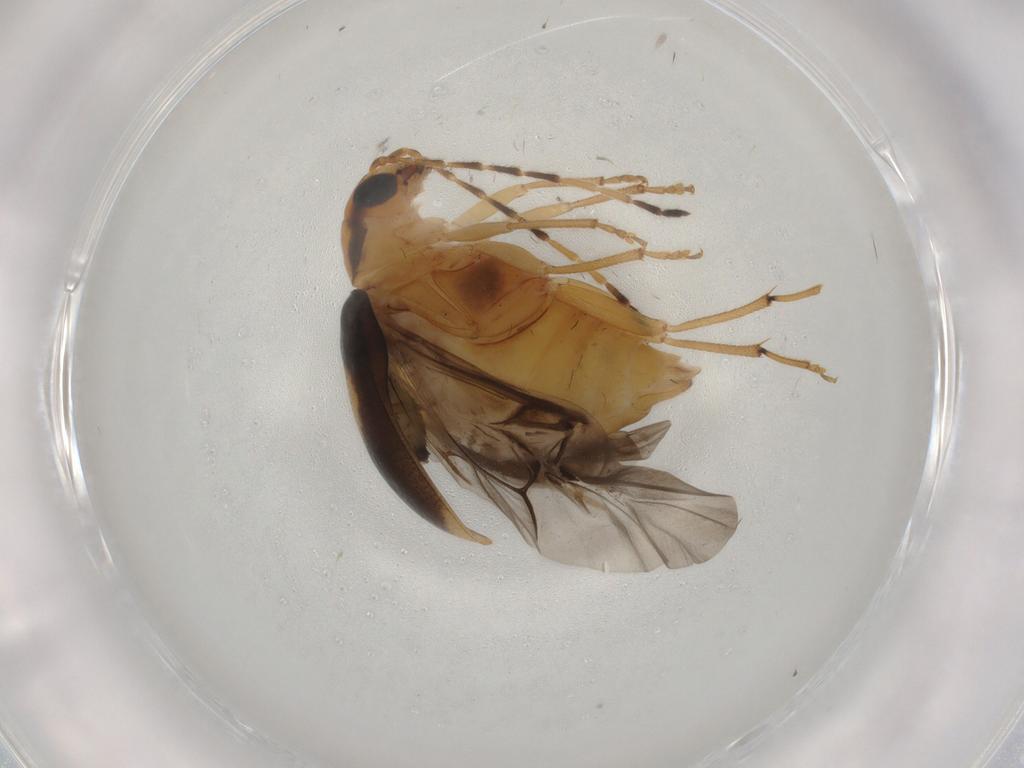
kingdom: Animalia
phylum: Arthropoda
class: Insecta
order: Coleoptera
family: Chrysomelidae
